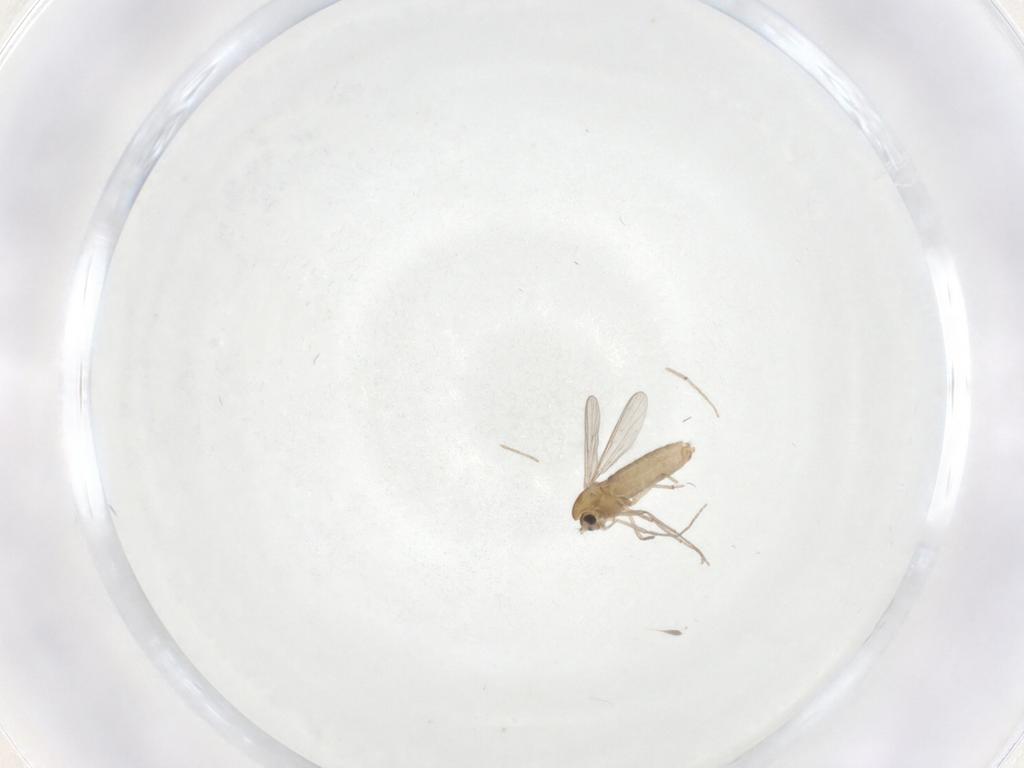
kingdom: Animalia
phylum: Arthropoda
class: Insecta
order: Diptera
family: Chironomidae
